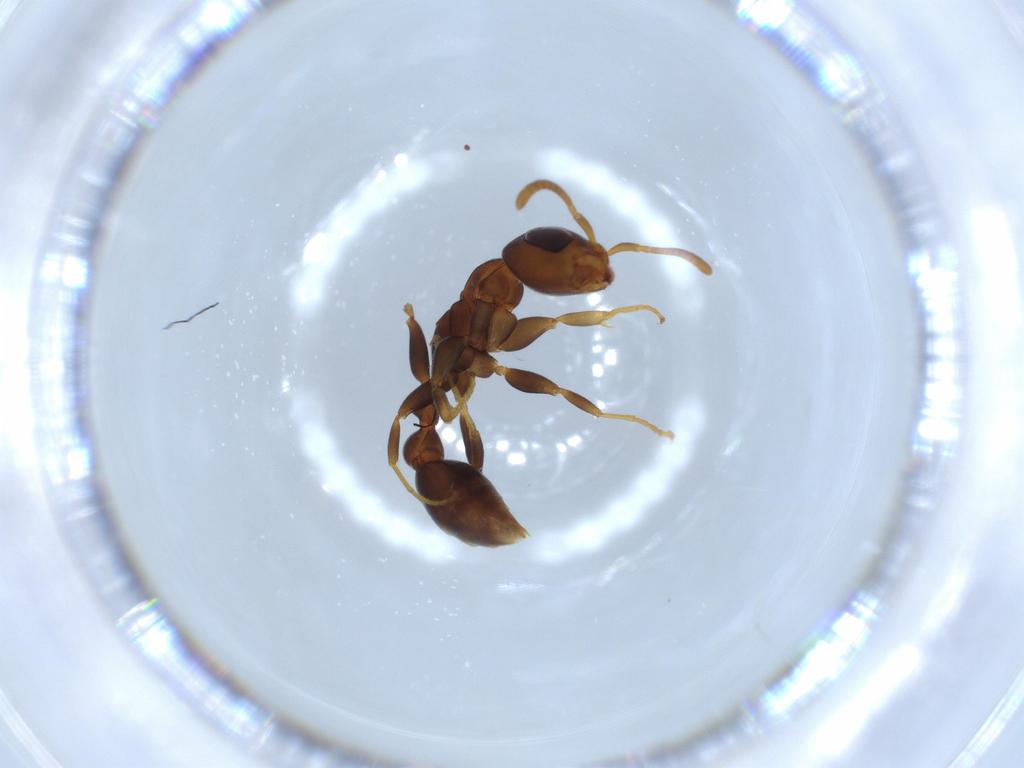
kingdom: Animalia
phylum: Arthropoda
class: Insecta
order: Hymenoptera
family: Formicidae
